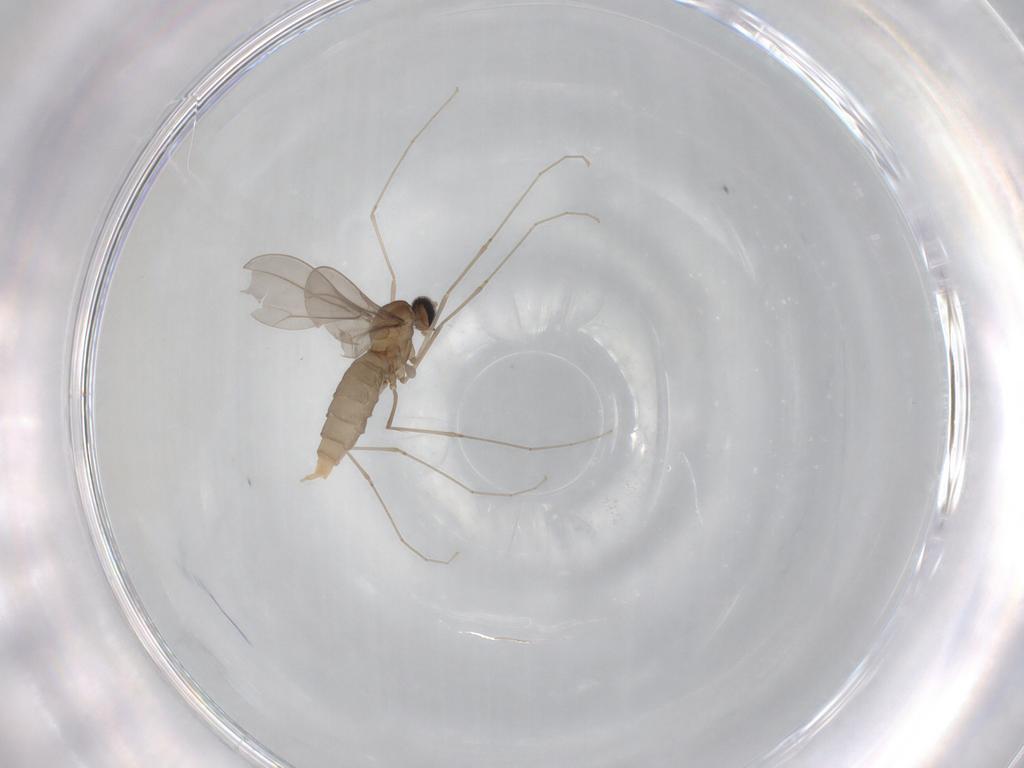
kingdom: Animalia
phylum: Arthropoda
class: Insecta
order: Diptera
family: Cecidomyiidae
